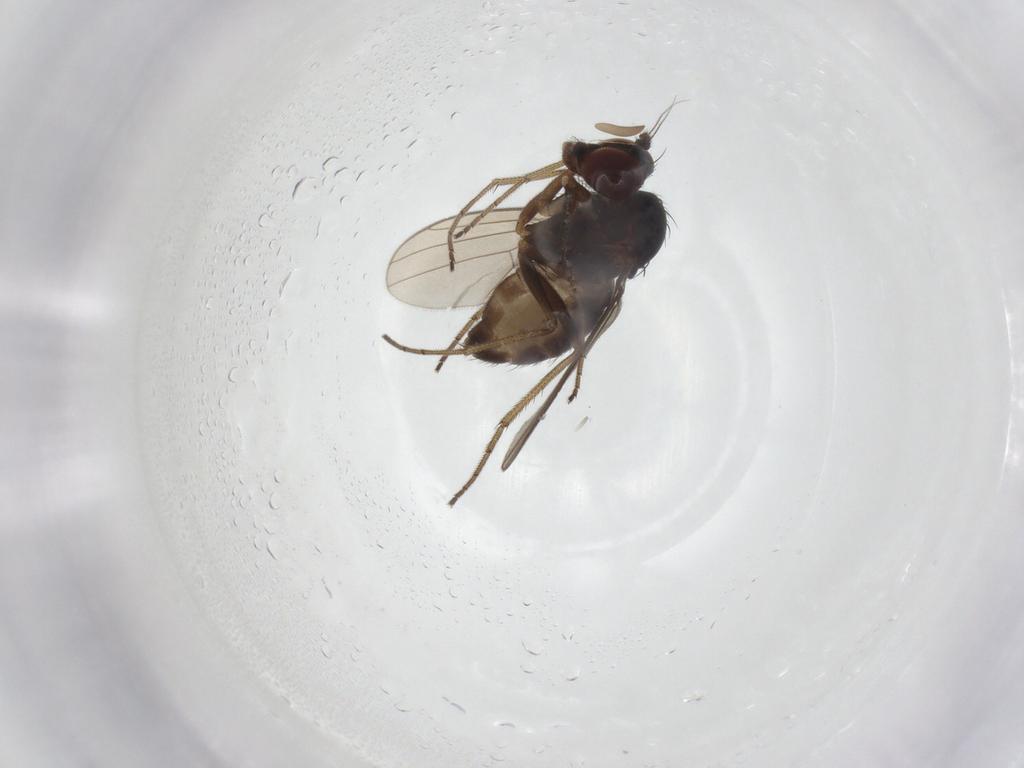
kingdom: Animalia
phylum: Arthropoda
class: Insecta
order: Diptera
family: Dolichopodidae
